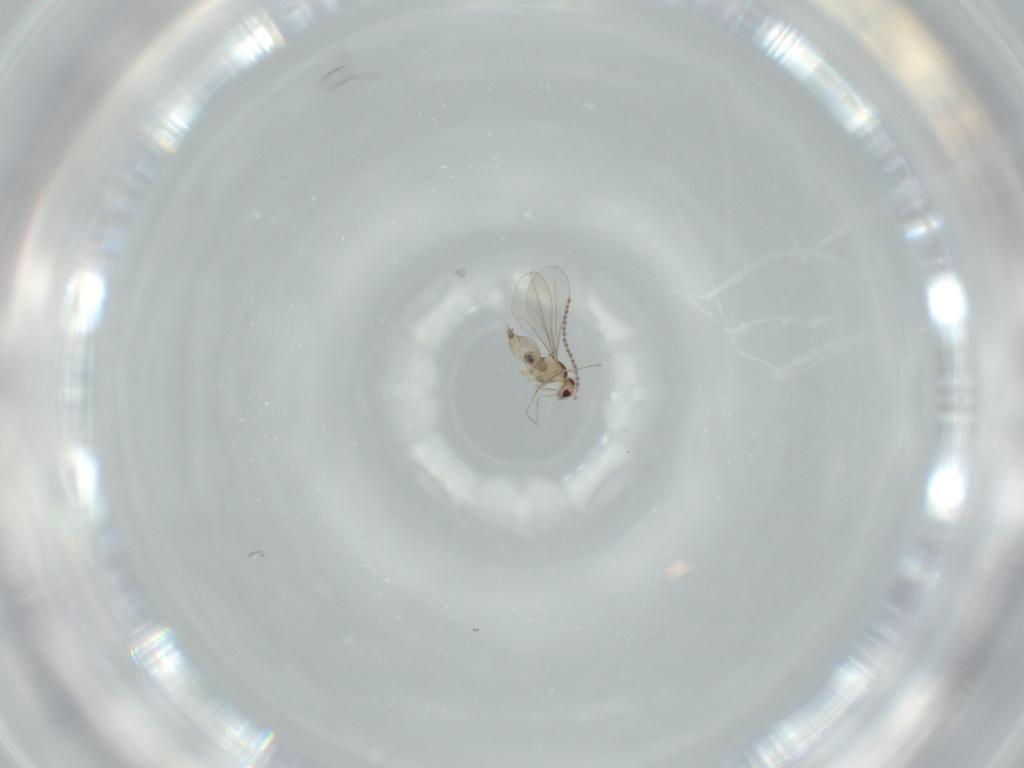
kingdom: Animalia
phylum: Arthropoda
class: Insecta
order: Diptera
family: Cecidomyiidae
